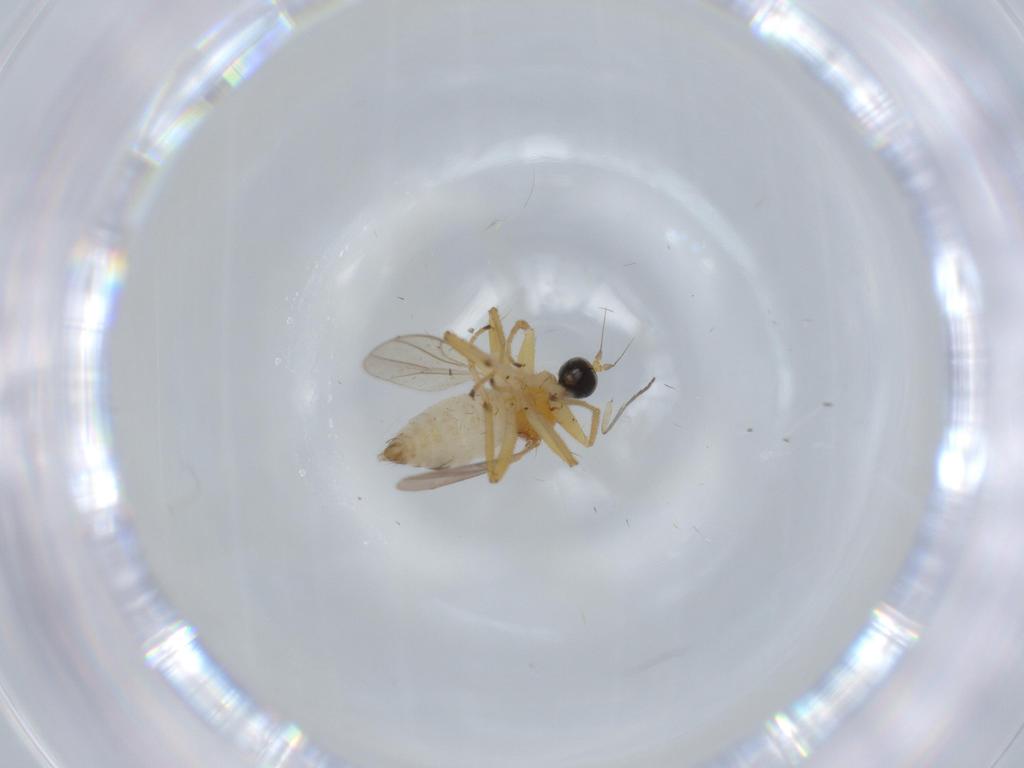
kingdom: Animalia
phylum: Arthropoda
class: Insecta
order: Diptera
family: Hybotidae
